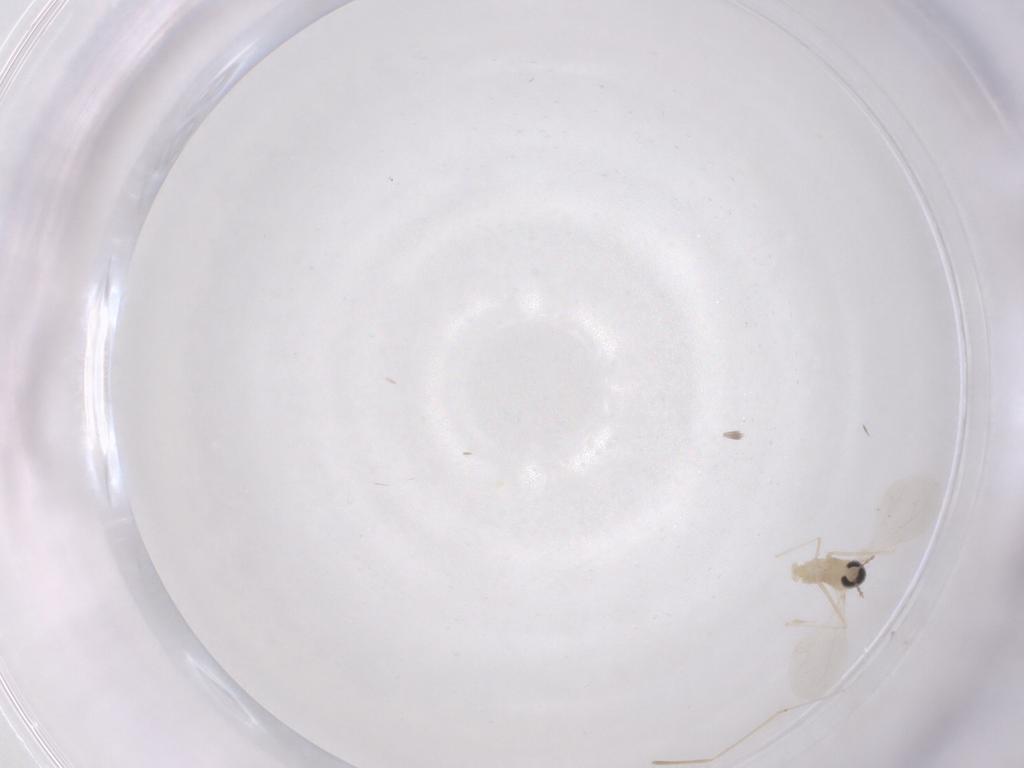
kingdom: Animalia
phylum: Arthropoda
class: Insecta
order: Diptera
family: Cecidomyiidae
